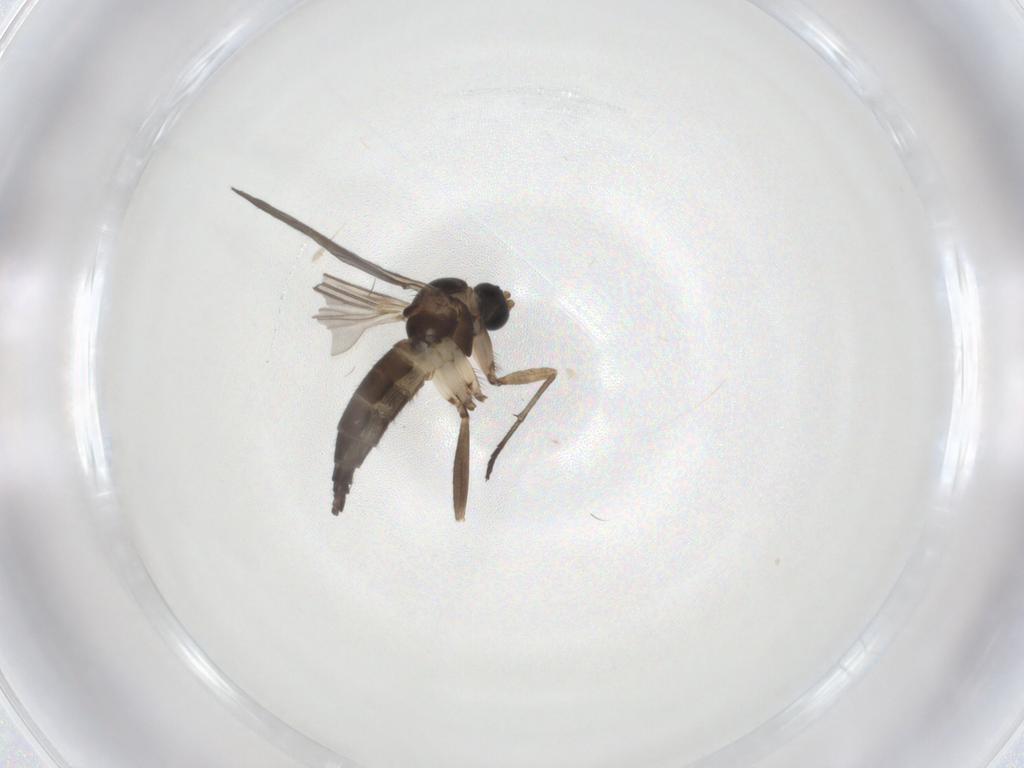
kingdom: Animalia
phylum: Arthropoda
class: Insecta
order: Diptera
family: Sciaridae
